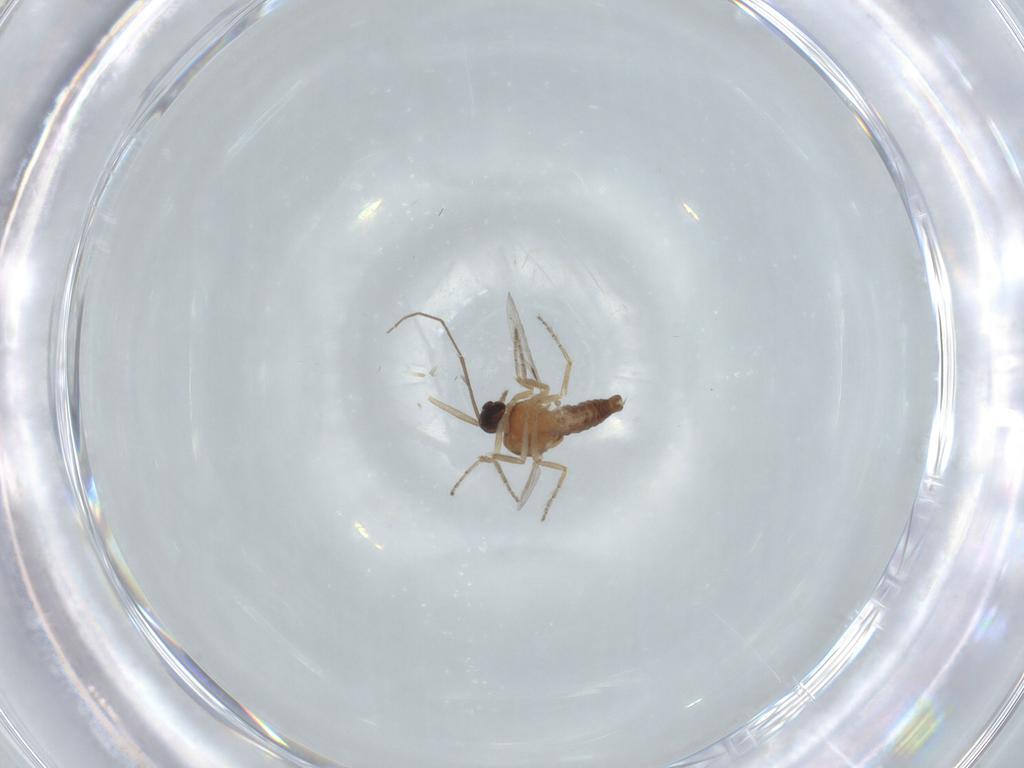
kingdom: Animalia
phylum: Arthropoda
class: Insecta
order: Diptera
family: Ceratopogonidae
